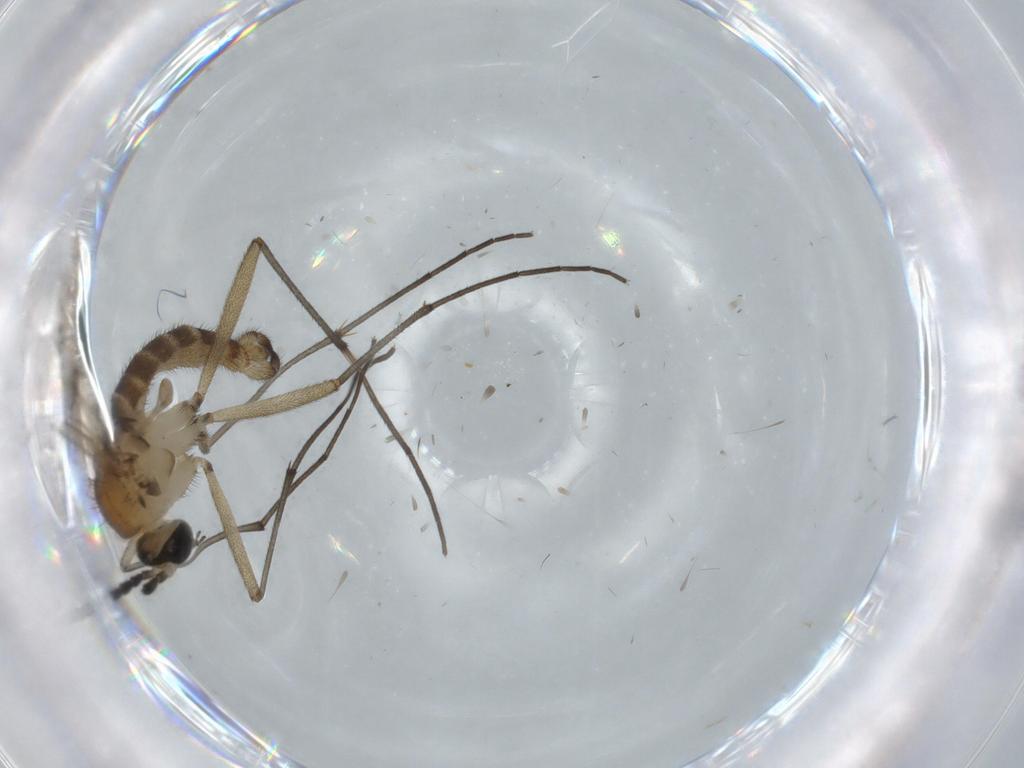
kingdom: Animalia
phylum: Arthropoda
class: Insecta
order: Diptera
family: Sciaridae
